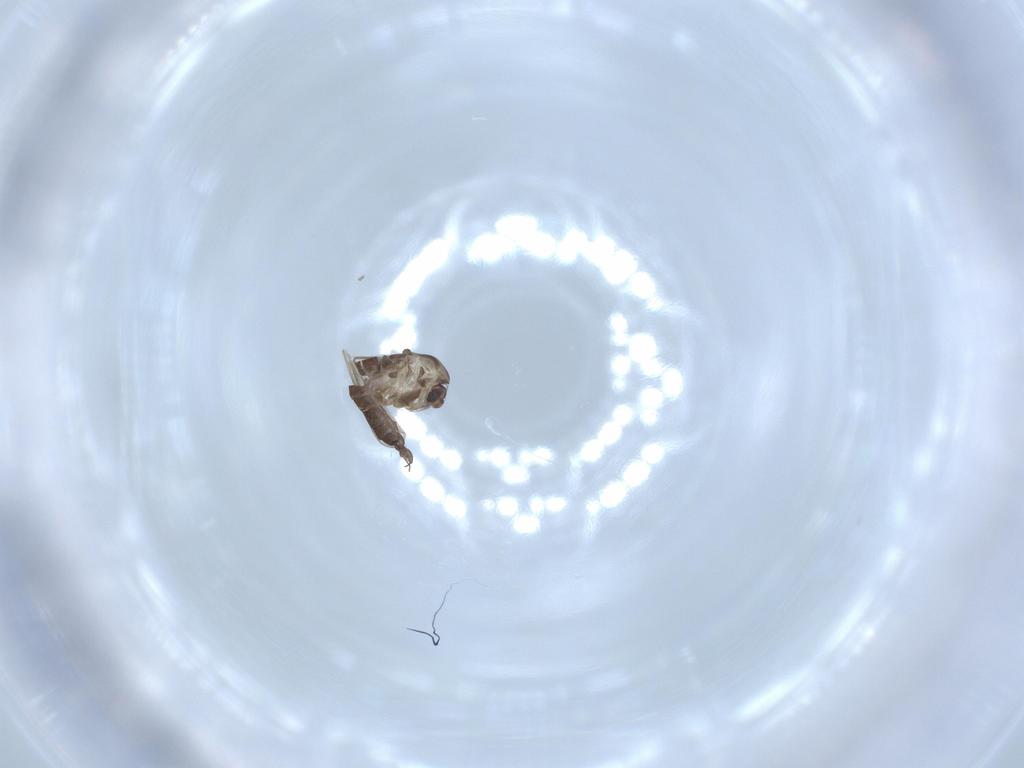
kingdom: Animalia
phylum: Arthropoda
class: Insecta
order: Diptera
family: Chironomidae
